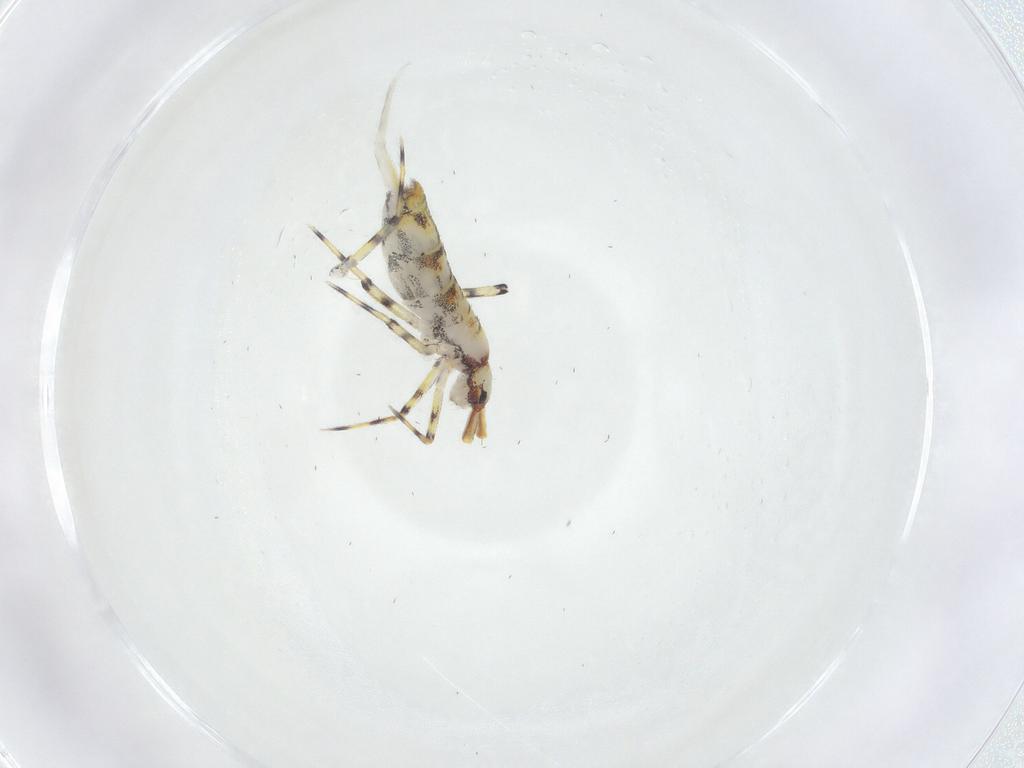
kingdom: Animalia
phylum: Arthropoda
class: Collembola
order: Entomobryomorpha
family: Entomobryidae
